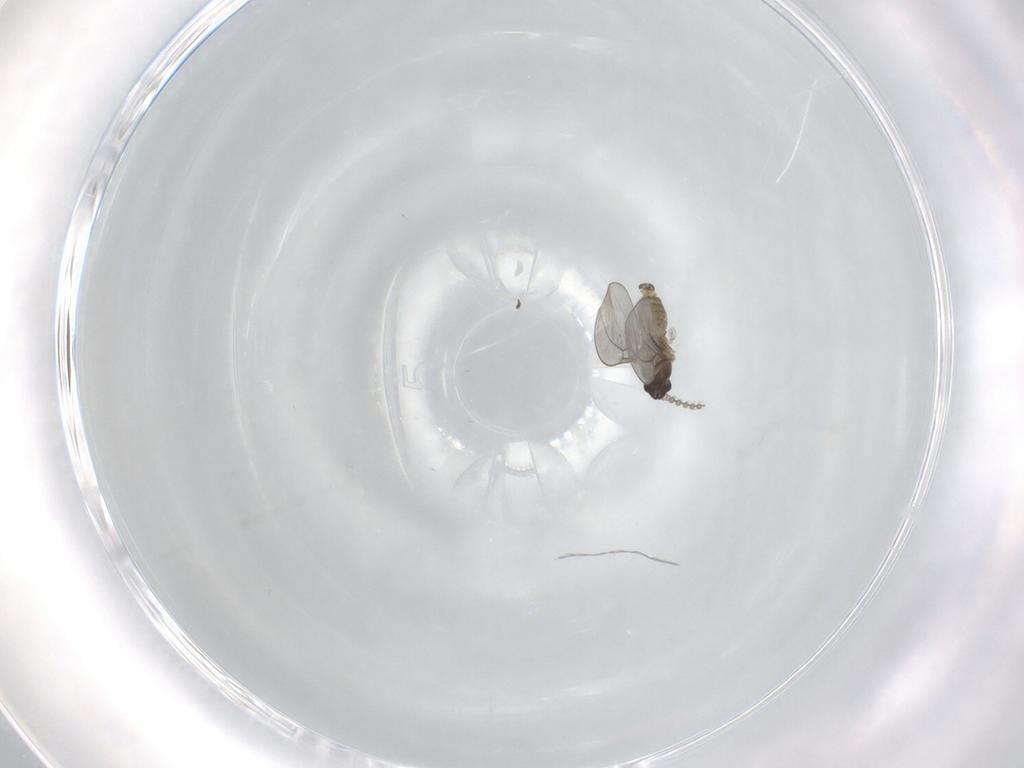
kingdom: Animalia
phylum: Arthropoda
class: Insecta
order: Diptera
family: Cecidomyiidae
